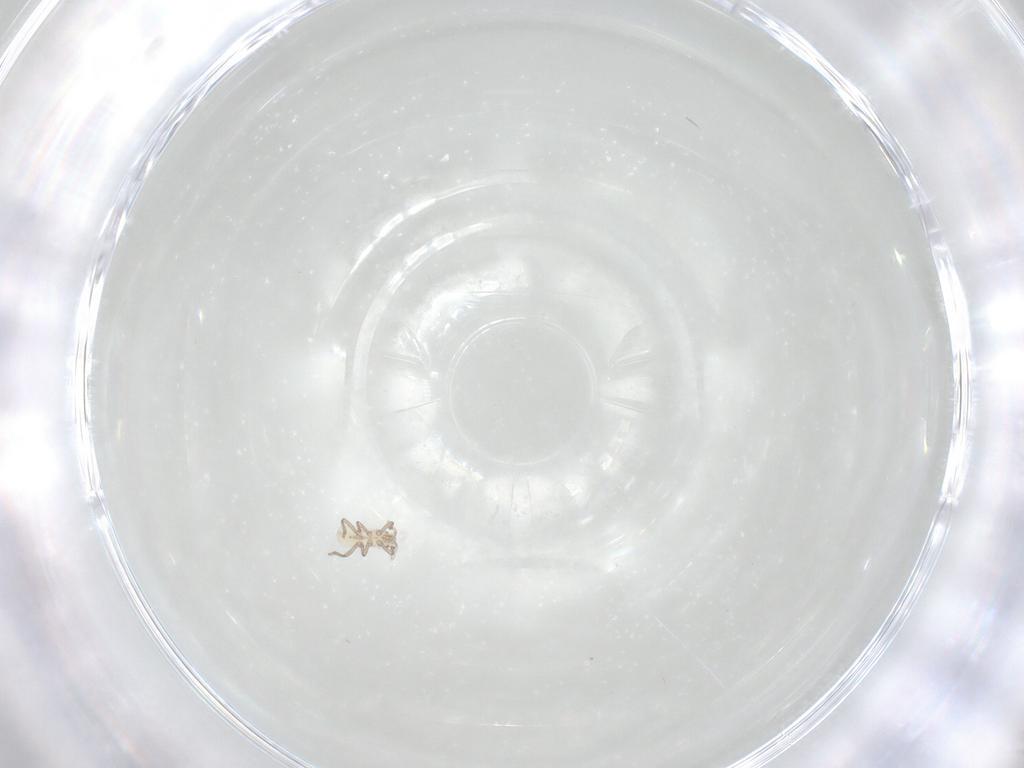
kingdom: Animalia
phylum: Arthropoda
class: Insecta
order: Hemiptera
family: Aphididae
